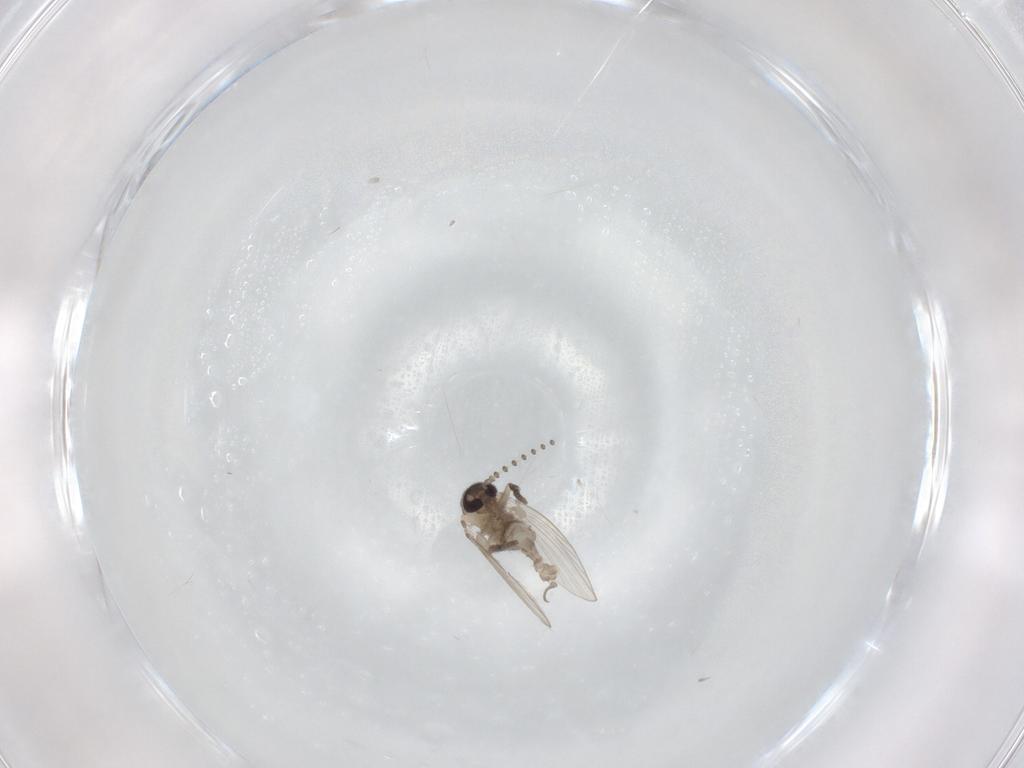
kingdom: Animalia
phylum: Arthropoda
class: Insecta
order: Diptera
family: Psychodidae
